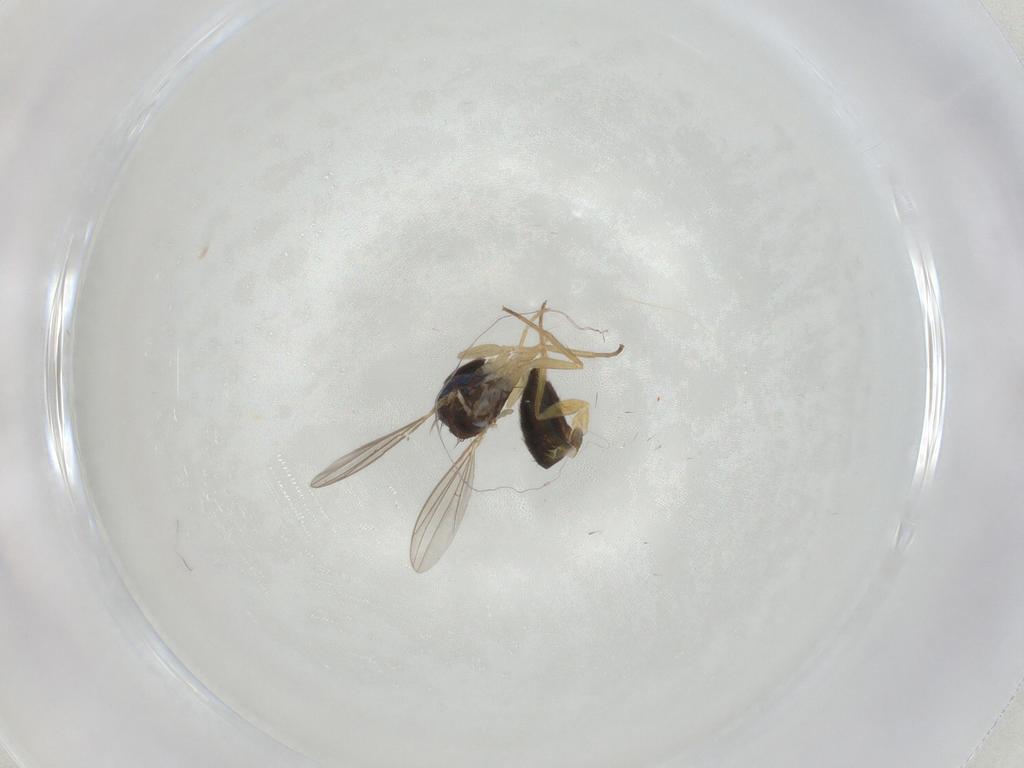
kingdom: Animalia
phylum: Arthropoda
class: Insecta
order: Diptera
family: Dolichopodidae
